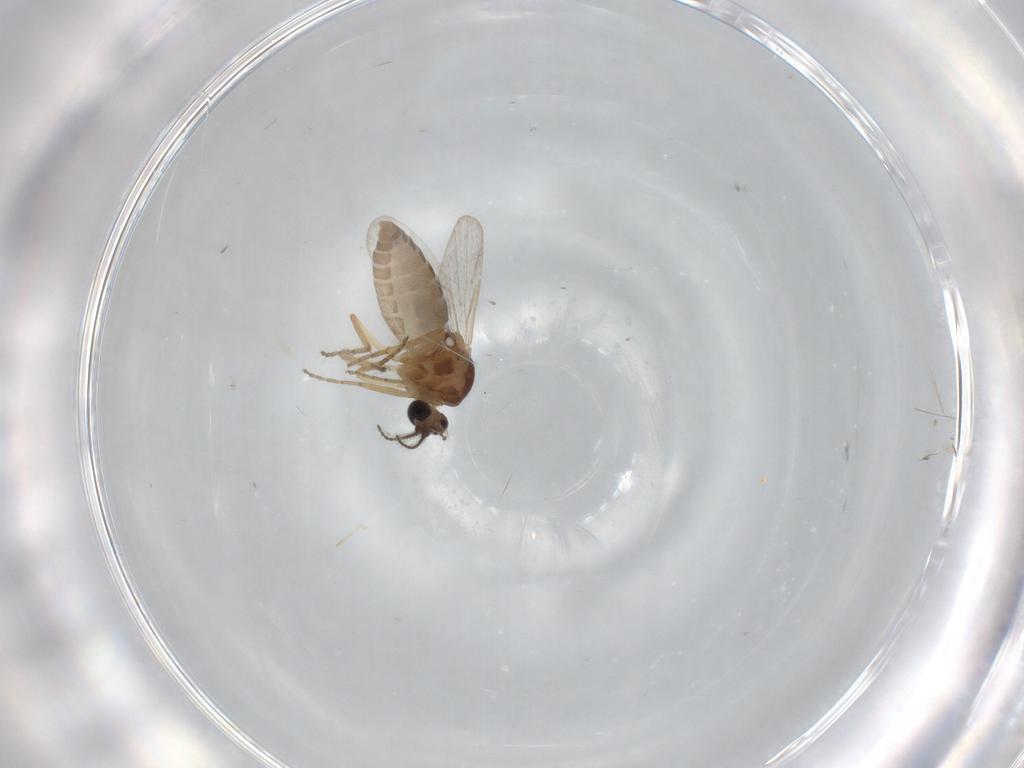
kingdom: Animalia
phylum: Arthropoda
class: Insecta
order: Diptera
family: Ceratopogonidae
